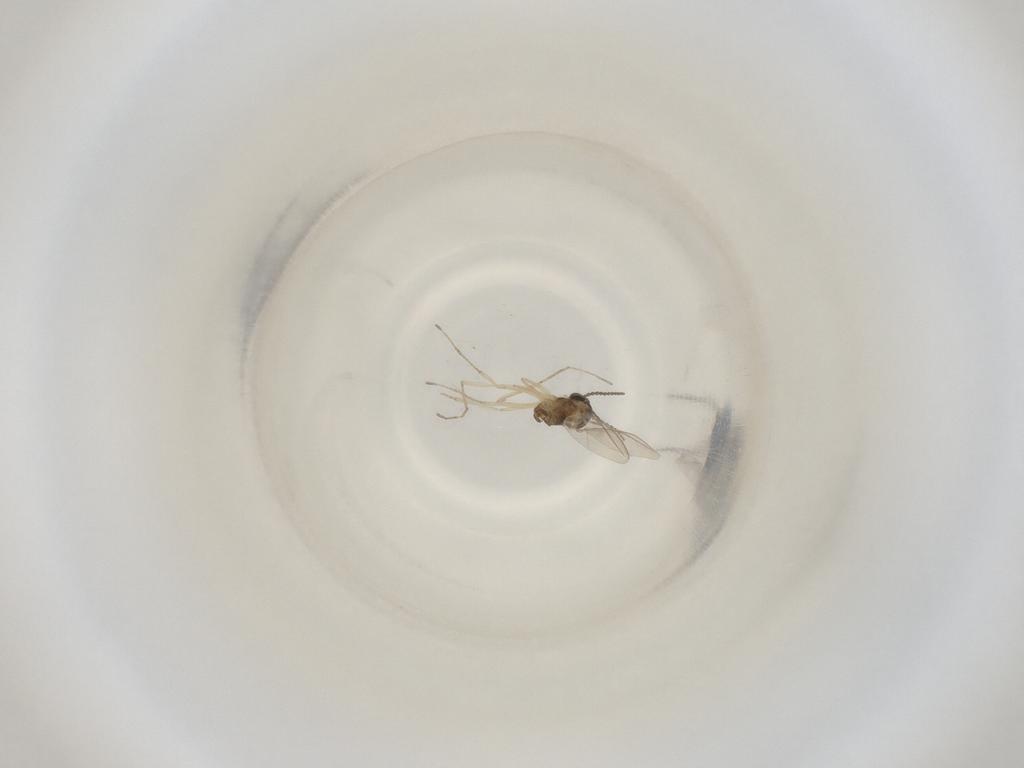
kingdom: Animalia
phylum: Arthropoda
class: Insecta
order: Diptera
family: Cecidomyiidae
